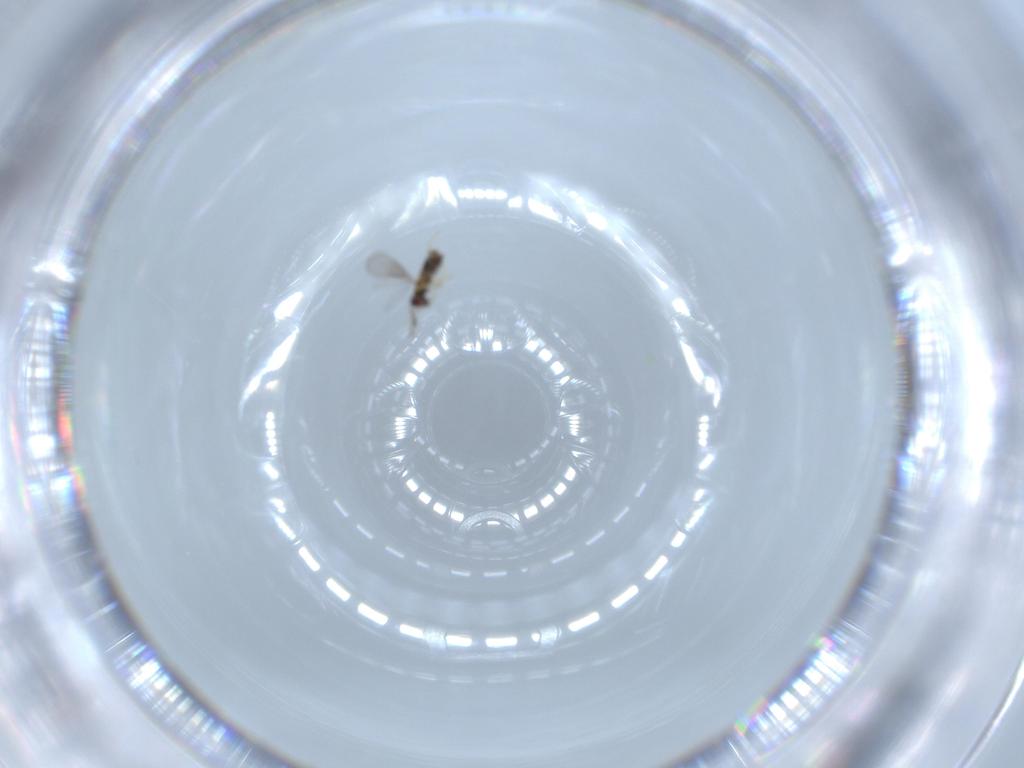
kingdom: Animalia
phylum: Arthropoda
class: Insecta
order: Hymenoptera
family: Aphelinidae
